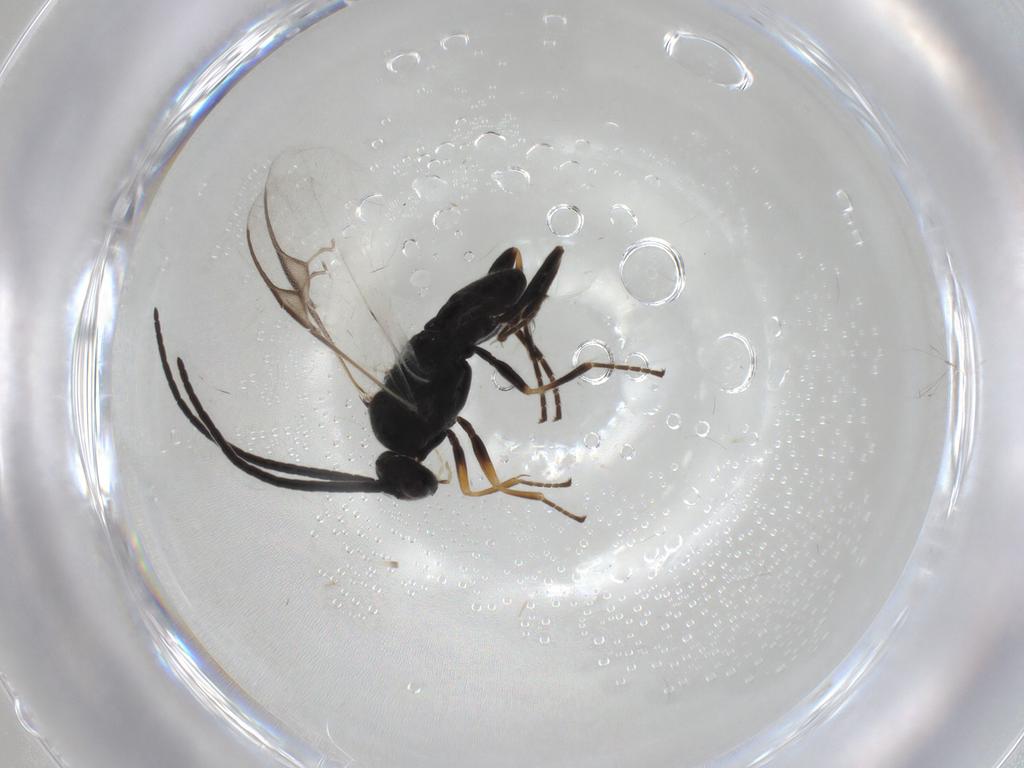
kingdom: Animalia
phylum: Arthropoda
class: Insecta
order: Hymenoptera
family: Braconidae
